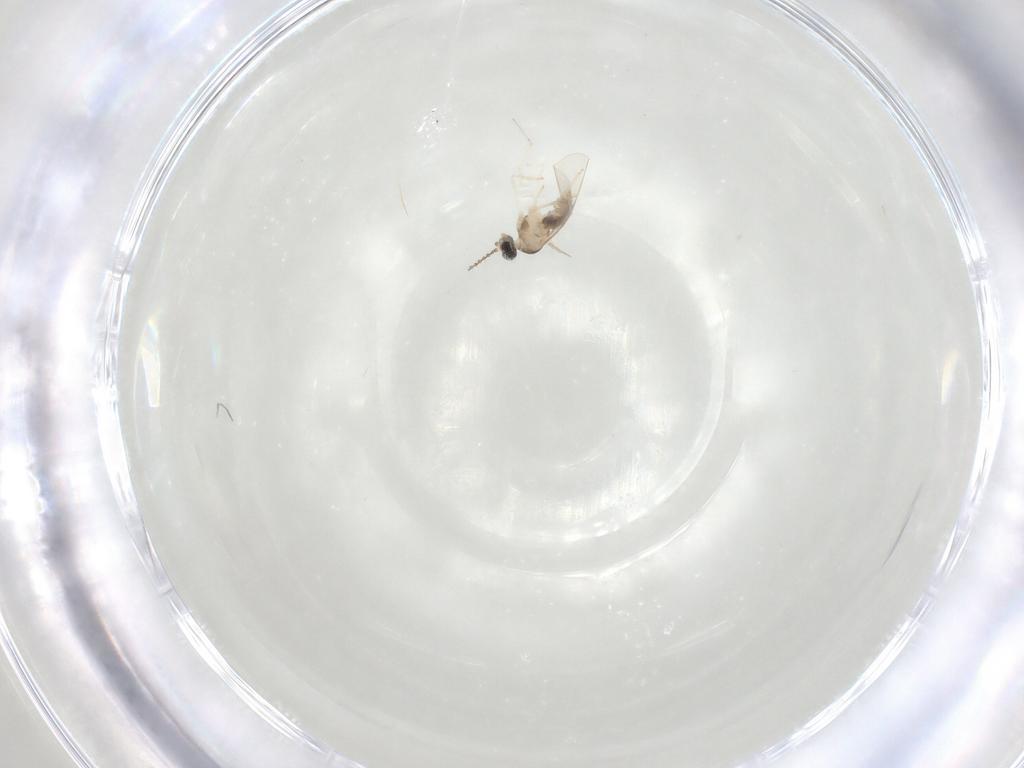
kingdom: Animalia
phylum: Arthropoda
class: Insecta
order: Diptera
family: Cecidomyiidae
